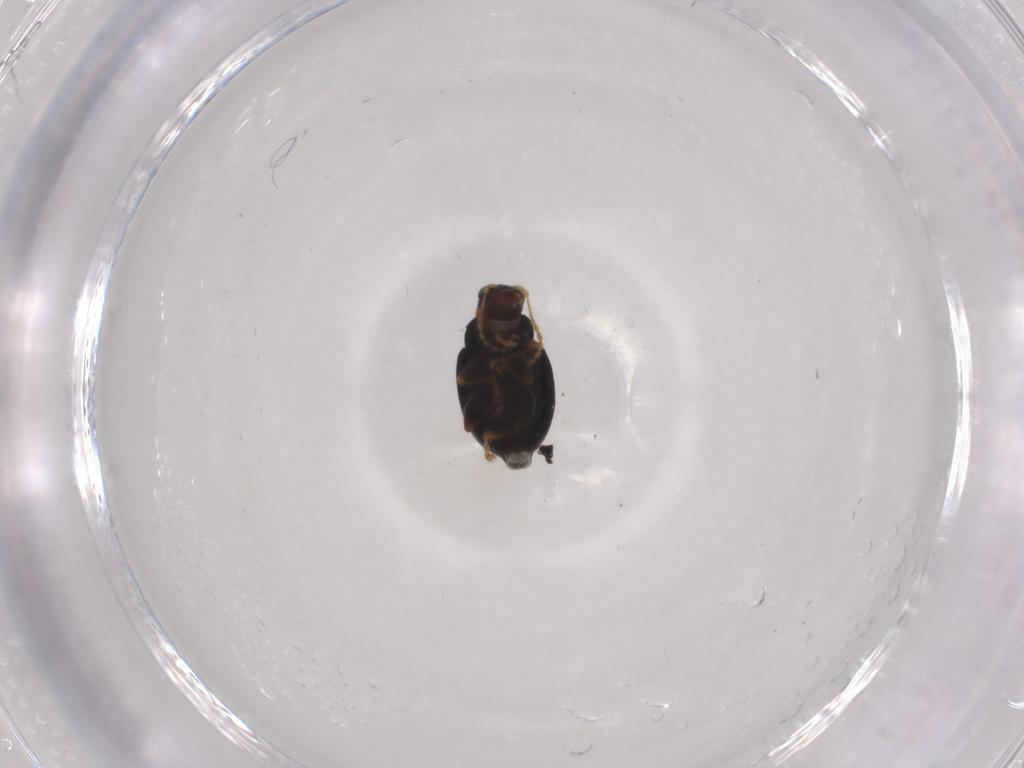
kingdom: Animalia
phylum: Arthropoda
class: Insecta
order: Coleoptera
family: Chrysomelidae
